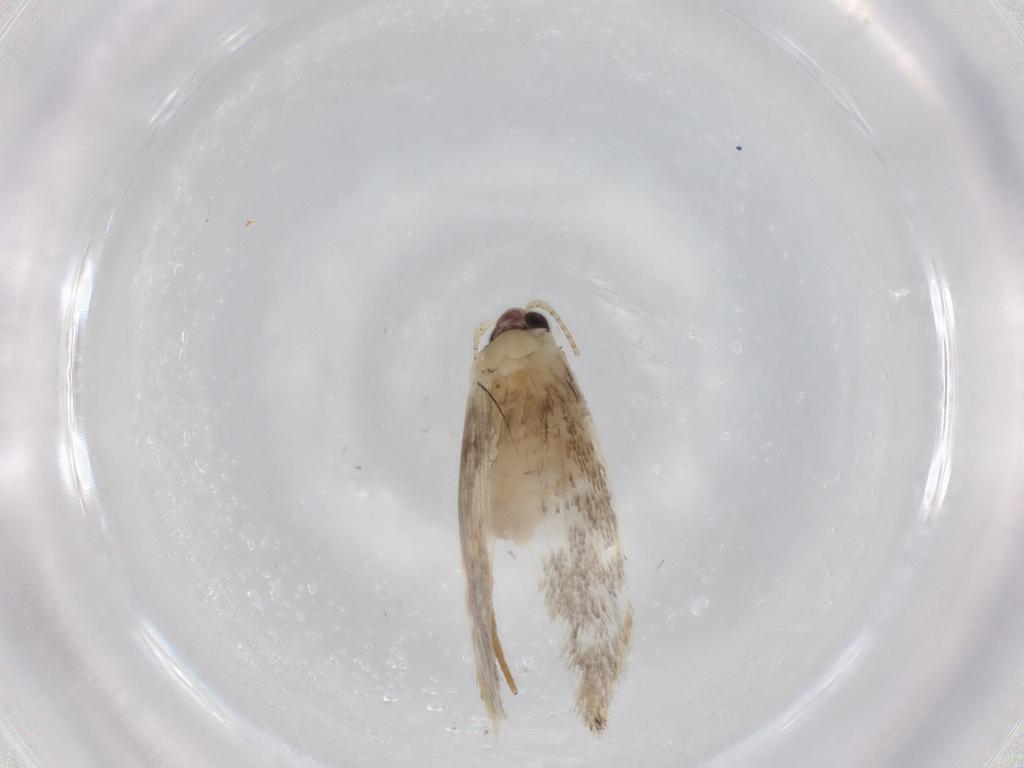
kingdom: Animalia
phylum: Arthropoda
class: Insecta
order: Lepidoptera
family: Tineidae
